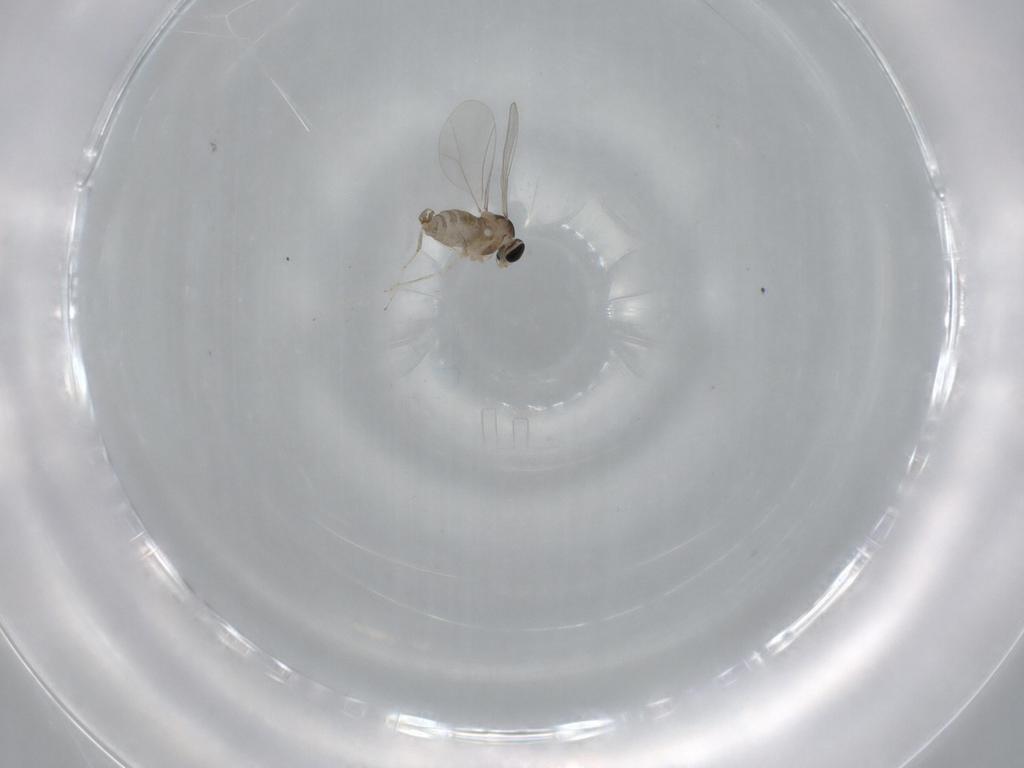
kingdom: Animalia
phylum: Arthropoda
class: Insecta
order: Diptera
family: Cecidomyiidae
